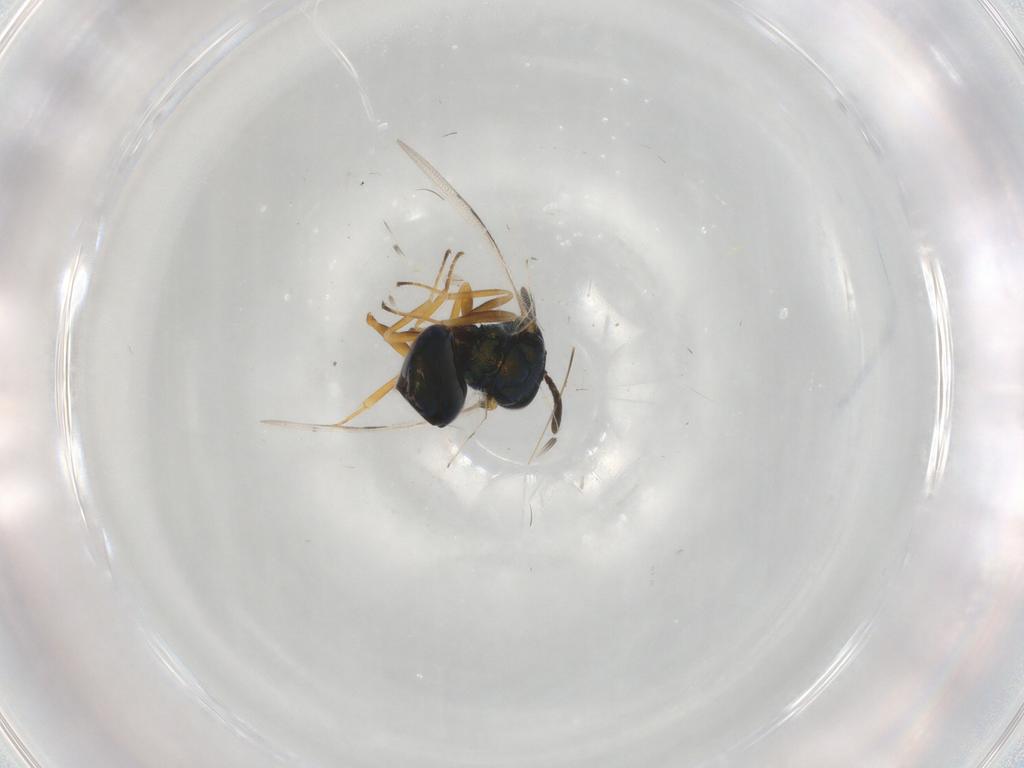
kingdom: Animalia
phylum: Arthropoda
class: Insecta
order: Hymenoptera
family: Pteromalidae
